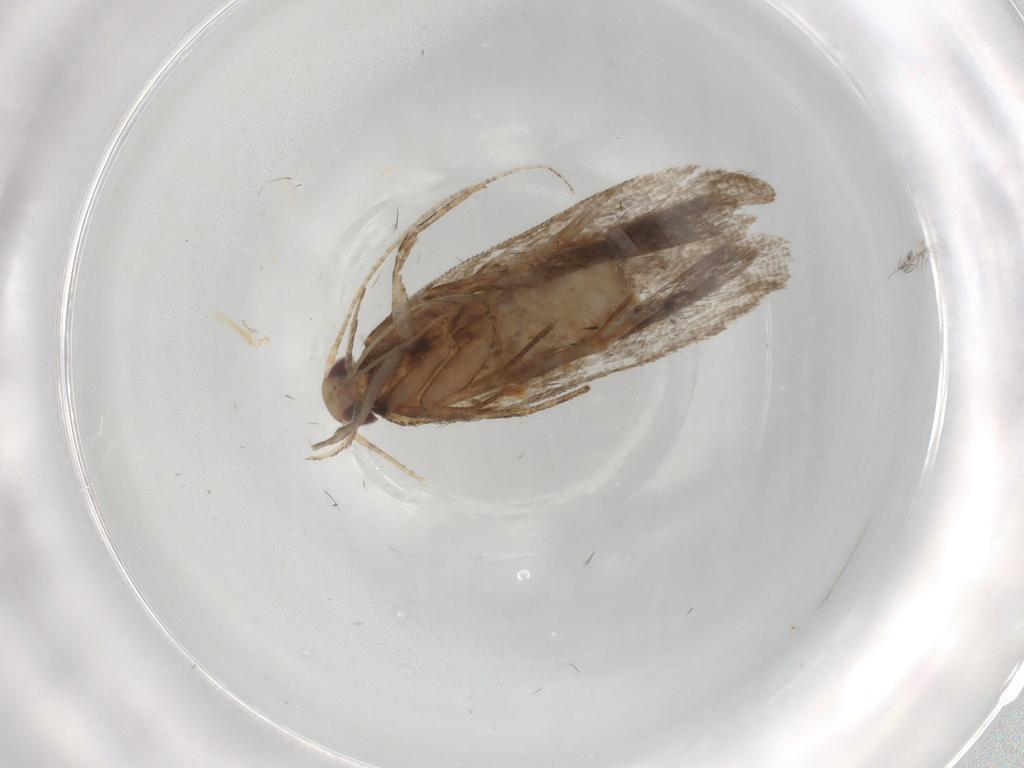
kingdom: Animalia
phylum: Arthropoda
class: Insecta
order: Lepidoptera
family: Gelechiidae
